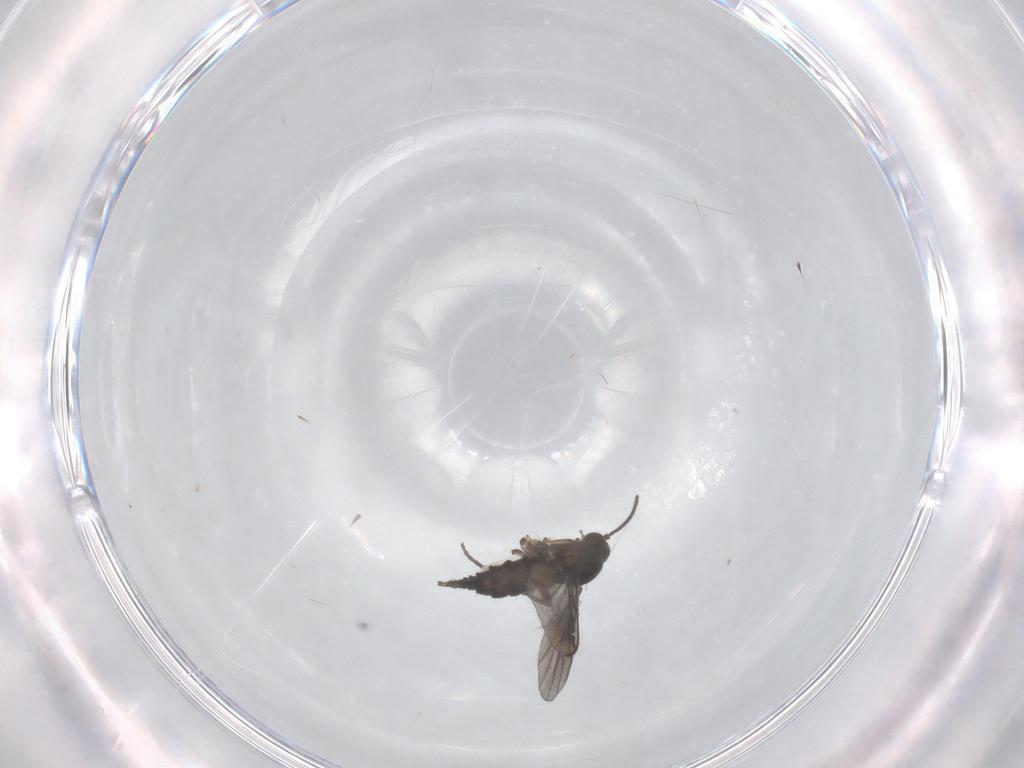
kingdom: Animalia
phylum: Arthropoda
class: Insecta
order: Diptera
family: Sciaridae
